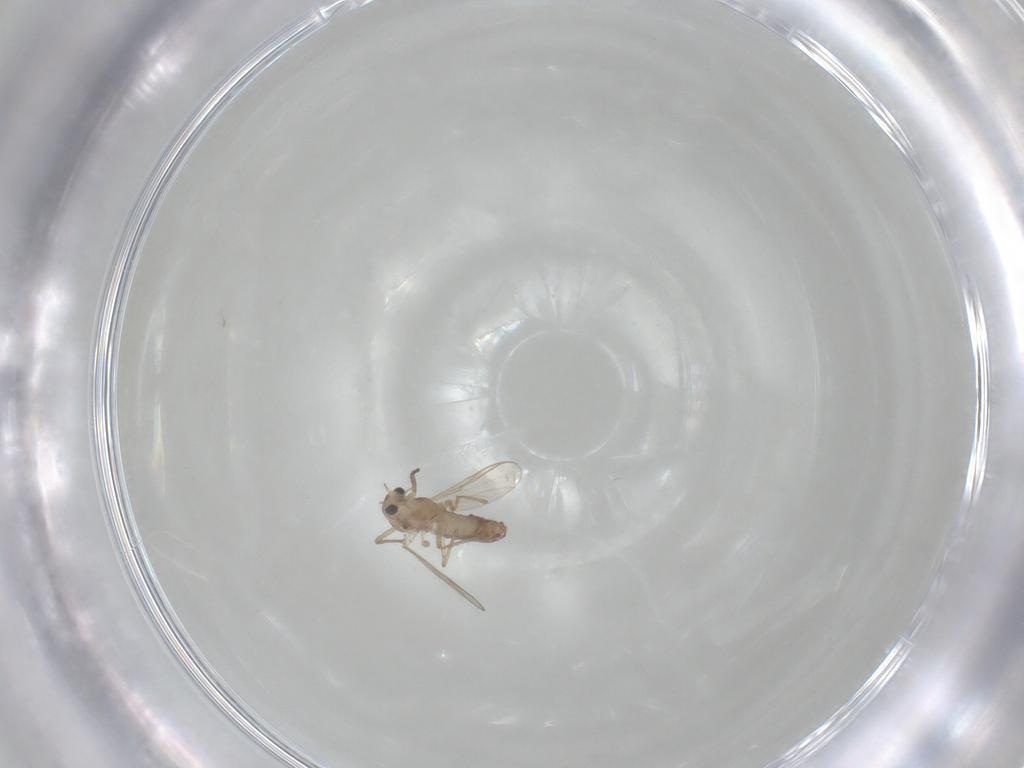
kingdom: Animalia
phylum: Arthropoda
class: Insecta
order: Diptera
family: Chironomidae
